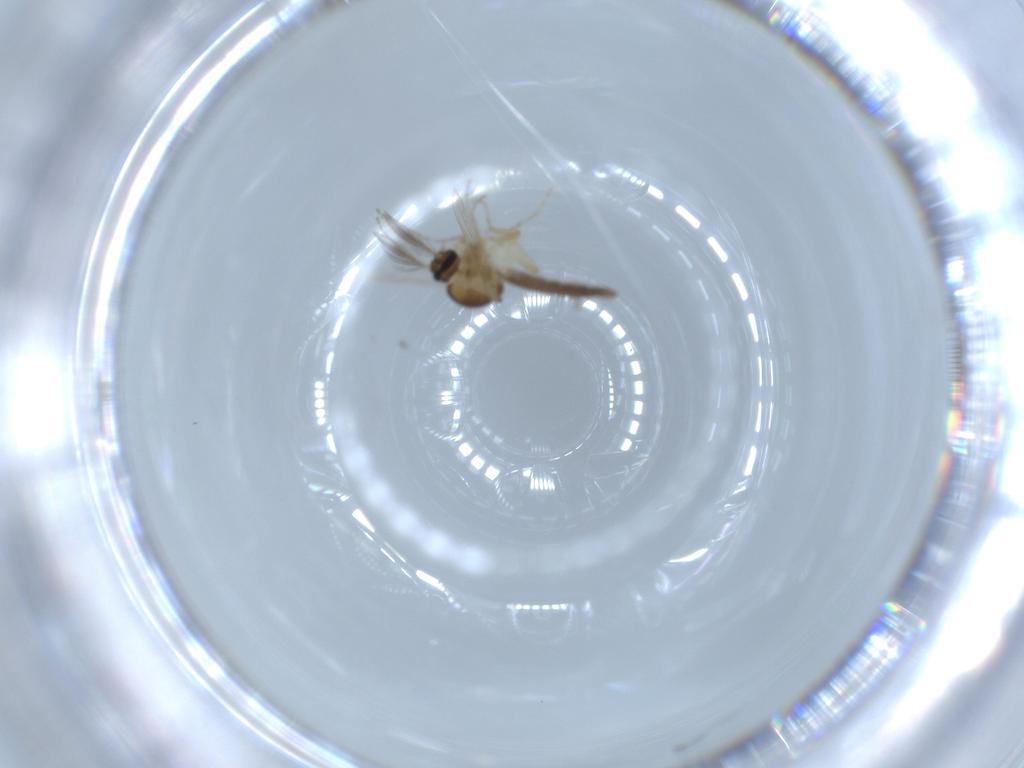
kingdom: Animalia
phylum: Arthropoda
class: Insecta
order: Diptera
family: Ceratopogonidae
